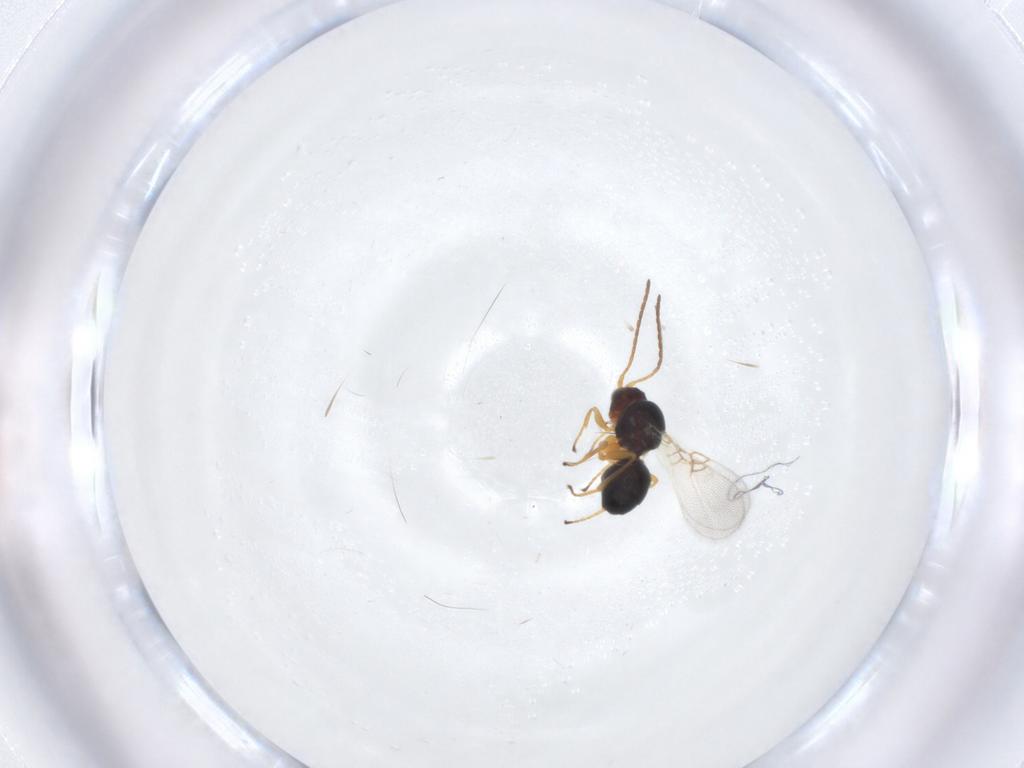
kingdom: Animalia
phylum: Arthropoda
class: Insecta
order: Hymenoptera
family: Figitidae
